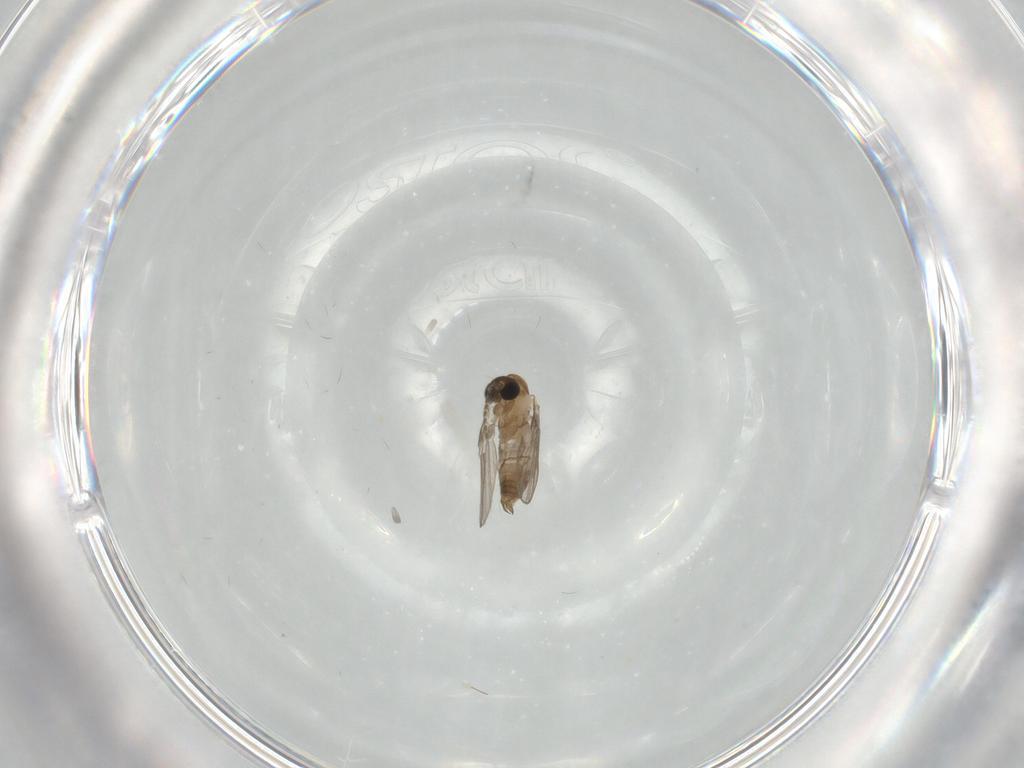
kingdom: Animalia
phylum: Arthropoda
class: Insecta
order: Diptera
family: Psychodidae
